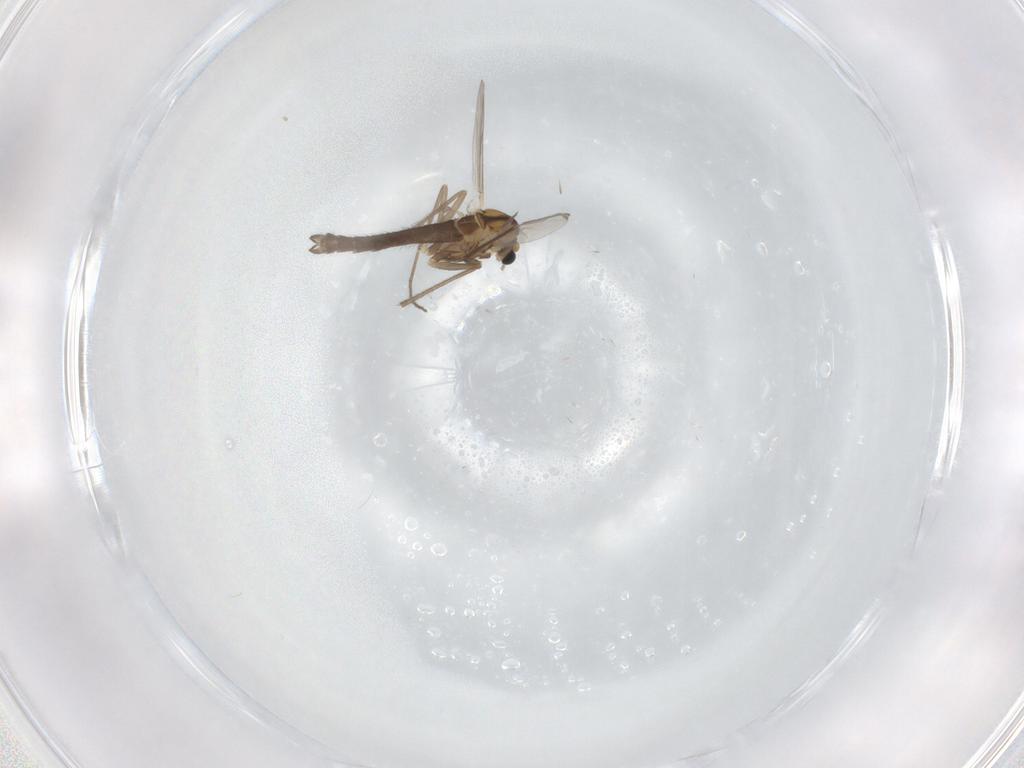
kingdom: Animalia
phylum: Arthropoda
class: Insecta
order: Diptera
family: Chironomidae
